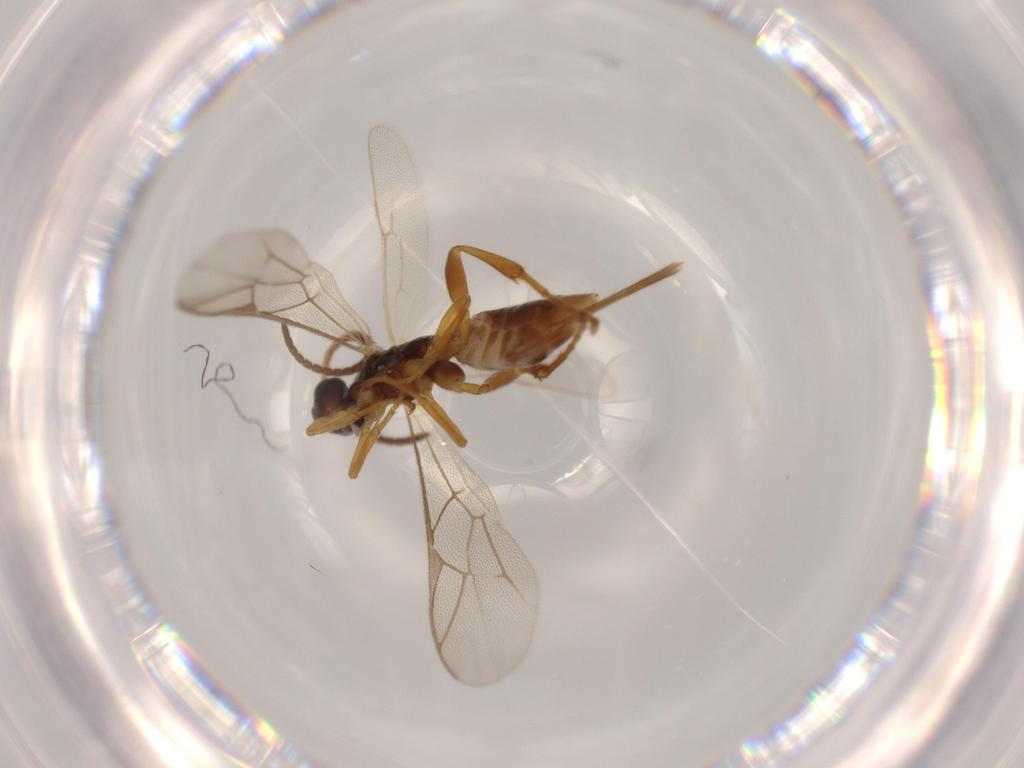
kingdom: Animalia
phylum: Arthropoda
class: Insecta
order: Hymenoptera
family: Ichneumonidae
